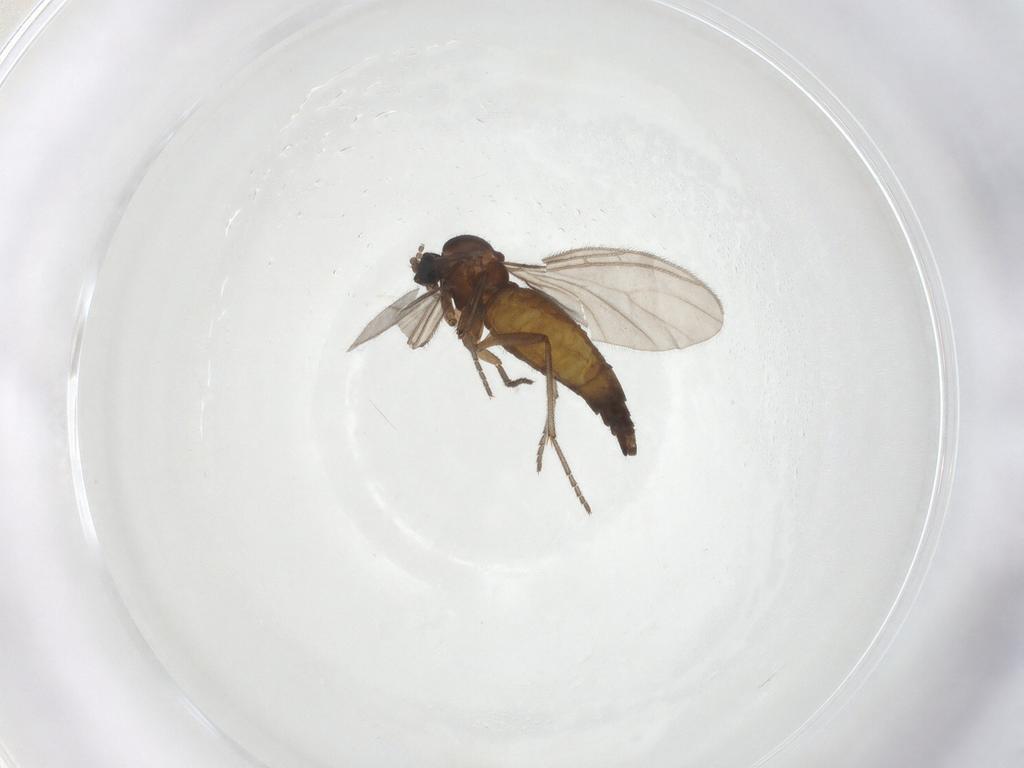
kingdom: Animalia
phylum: Arthropoda
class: Insecta
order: Diptera
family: Sciaridae
